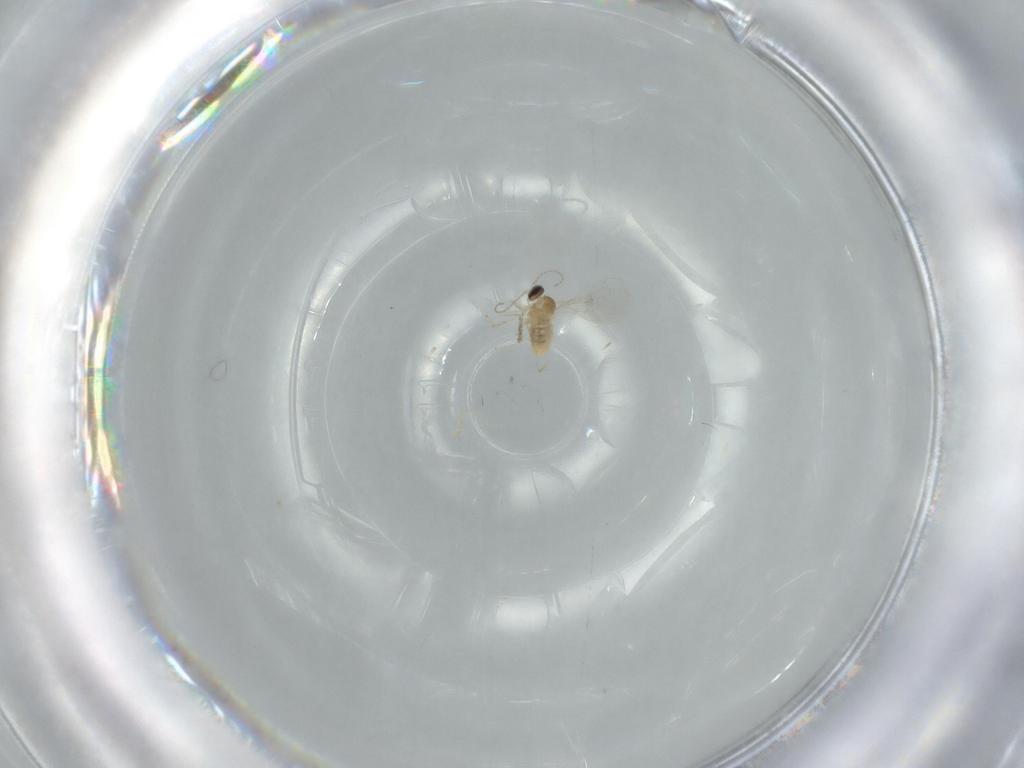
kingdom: Animalia
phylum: Arthropoda
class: Insecta
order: Diptera
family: Cecidomyiidae
